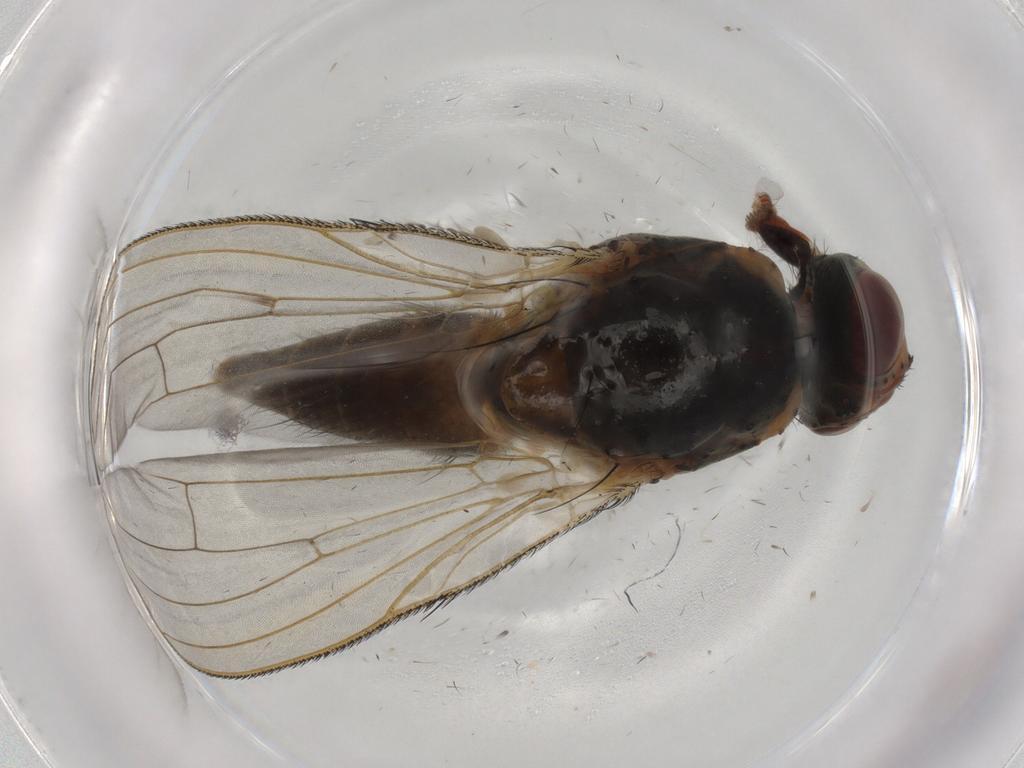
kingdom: Animalia
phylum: Arthropoda
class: Insecta
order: Diptera
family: Anthomyiidae
